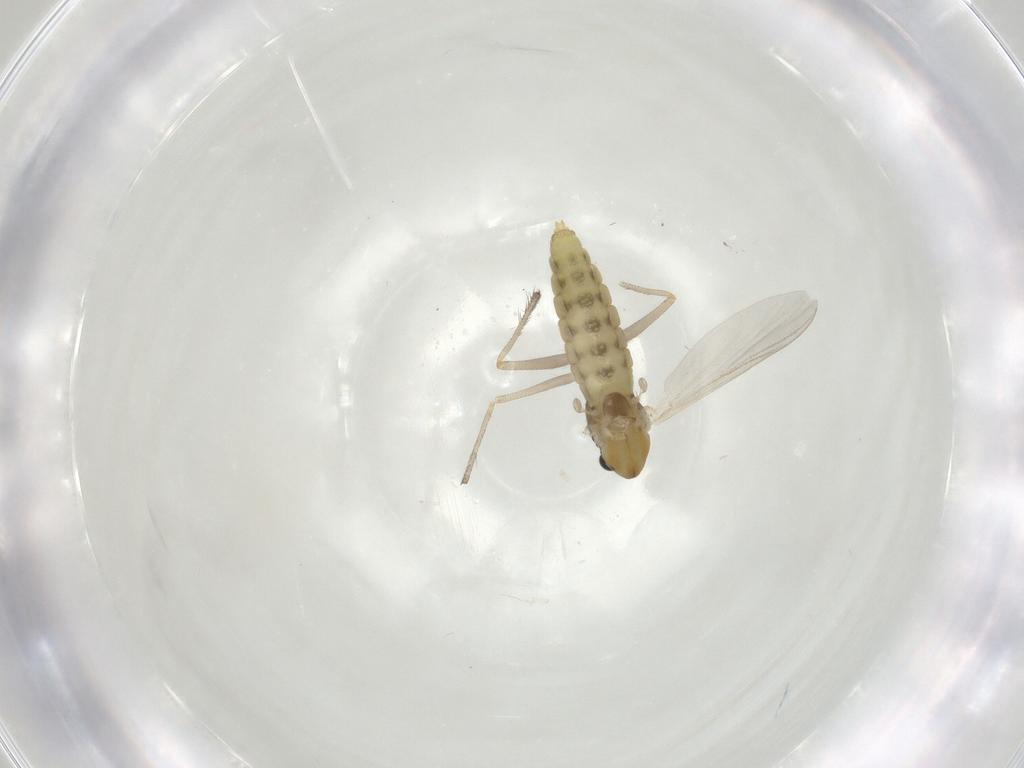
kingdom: Animalia
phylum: Arthropoda
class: Insecta
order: Diptera
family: Chironomidae
